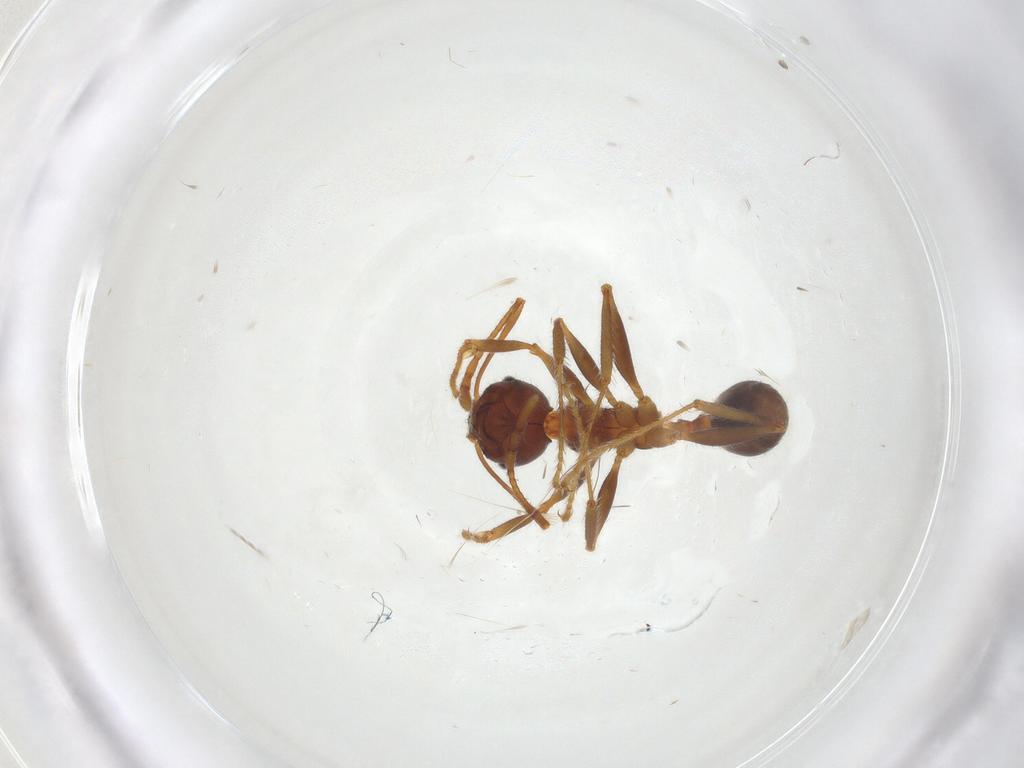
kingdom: Animalia
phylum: Arthropoda
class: Insecta
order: Hymenoptera
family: Formicidae
